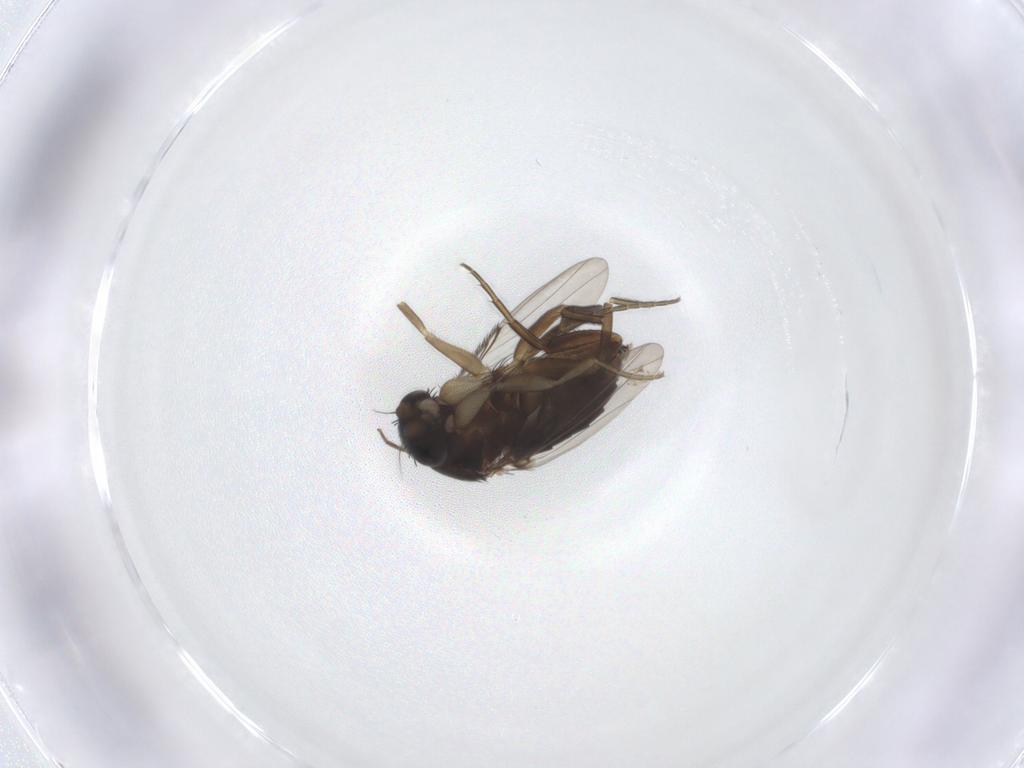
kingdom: Animalia
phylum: Arthropoda
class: Insecta
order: Diptera
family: Phoridae
